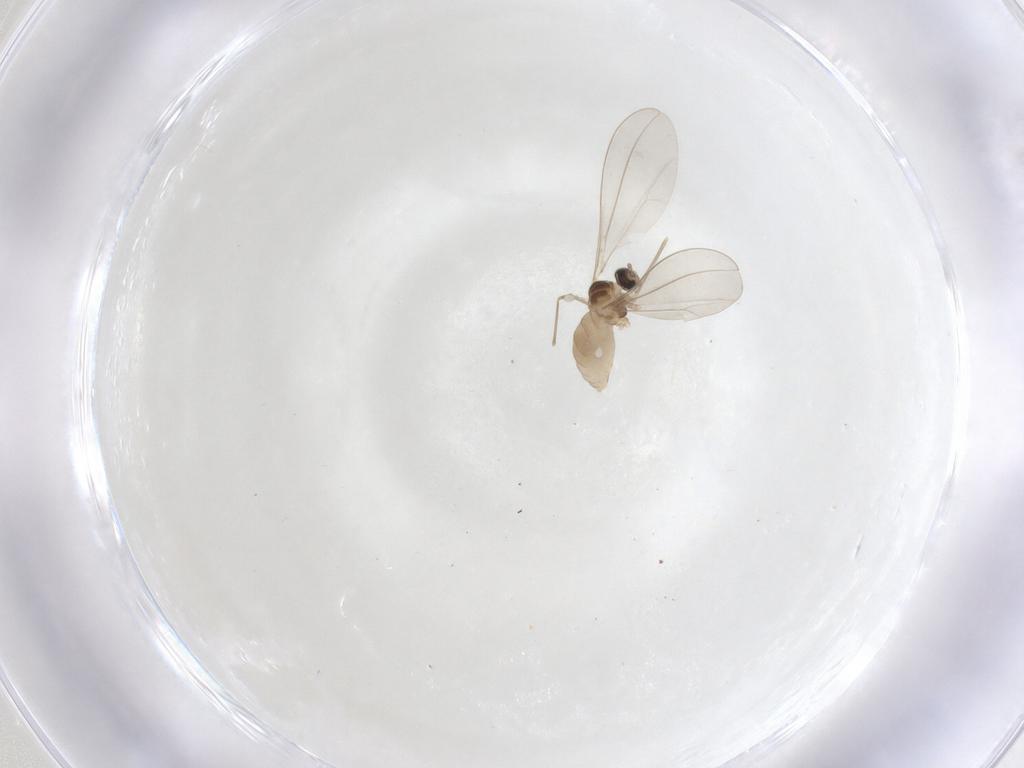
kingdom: Animalia
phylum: Arthropoda
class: Insecta
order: Diptera
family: Cecidomyiidae
